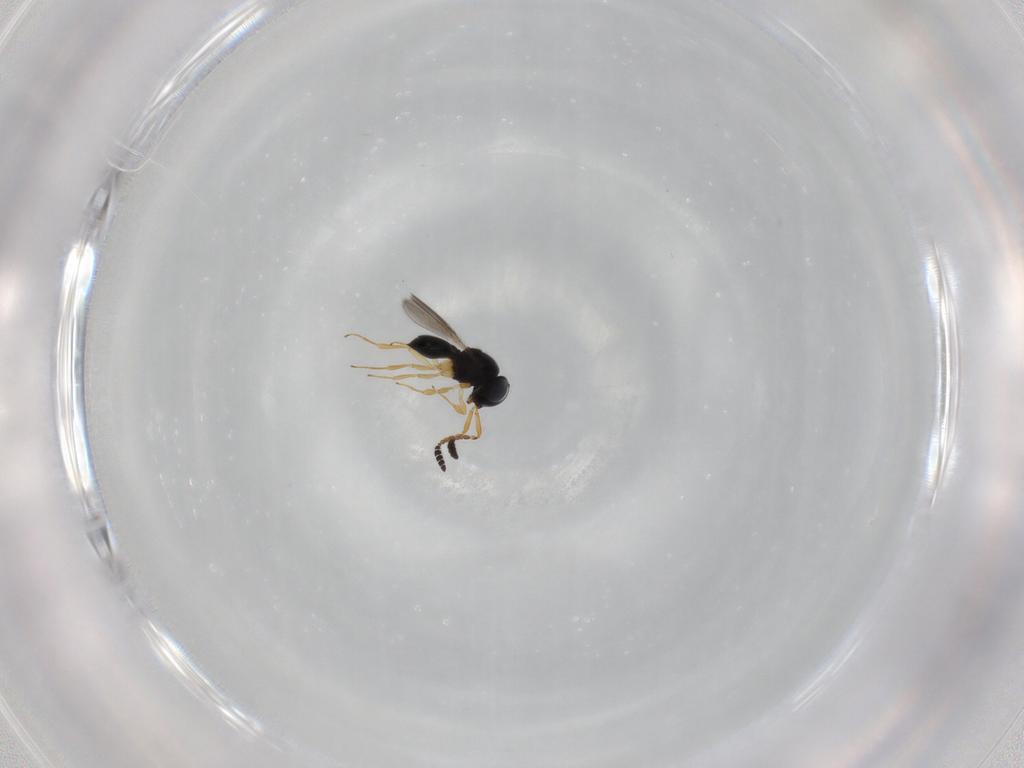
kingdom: Animalia
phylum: Arthropoda
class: Insecta
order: Hymenoptera
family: Scelionidae
